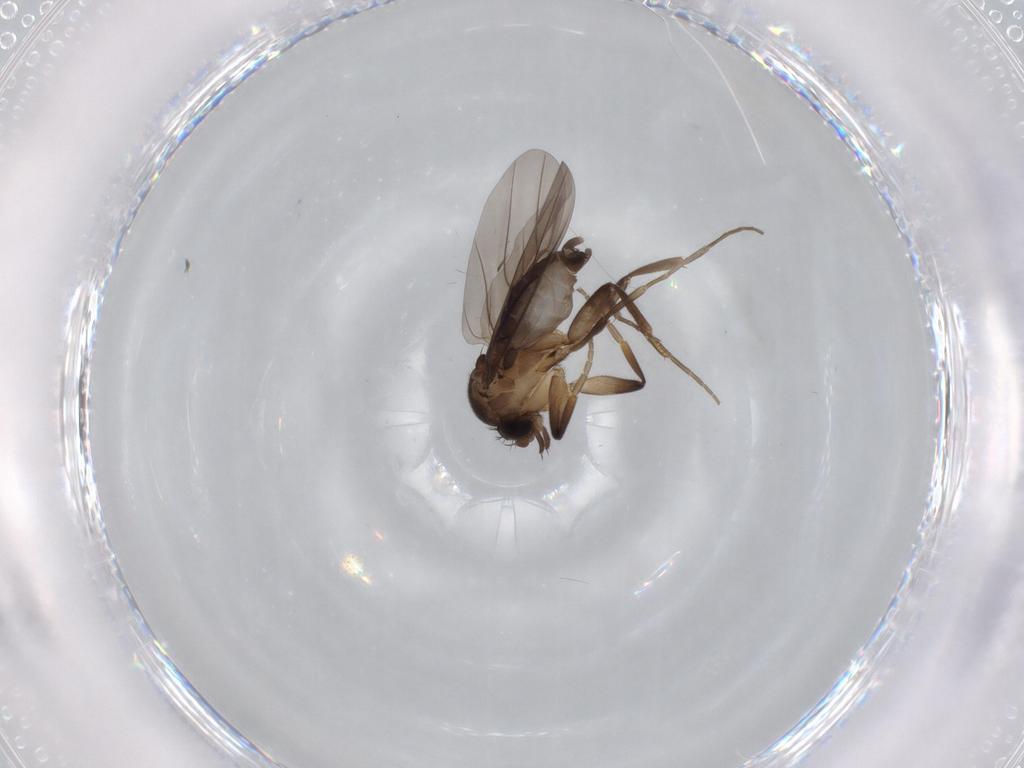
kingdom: Animalia
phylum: Arthropoda
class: Insecta
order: Diptera
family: Phoridae
